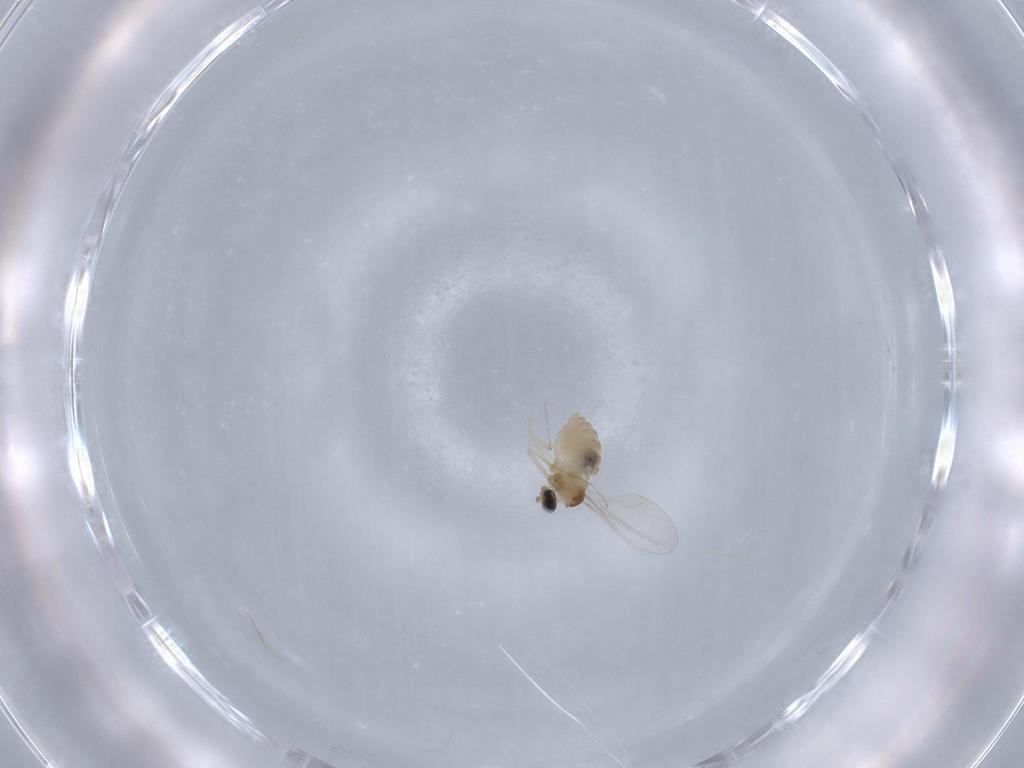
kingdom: Animalia
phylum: Arthropoda
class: Insecta
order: Diptera
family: Cecidomyiidae
